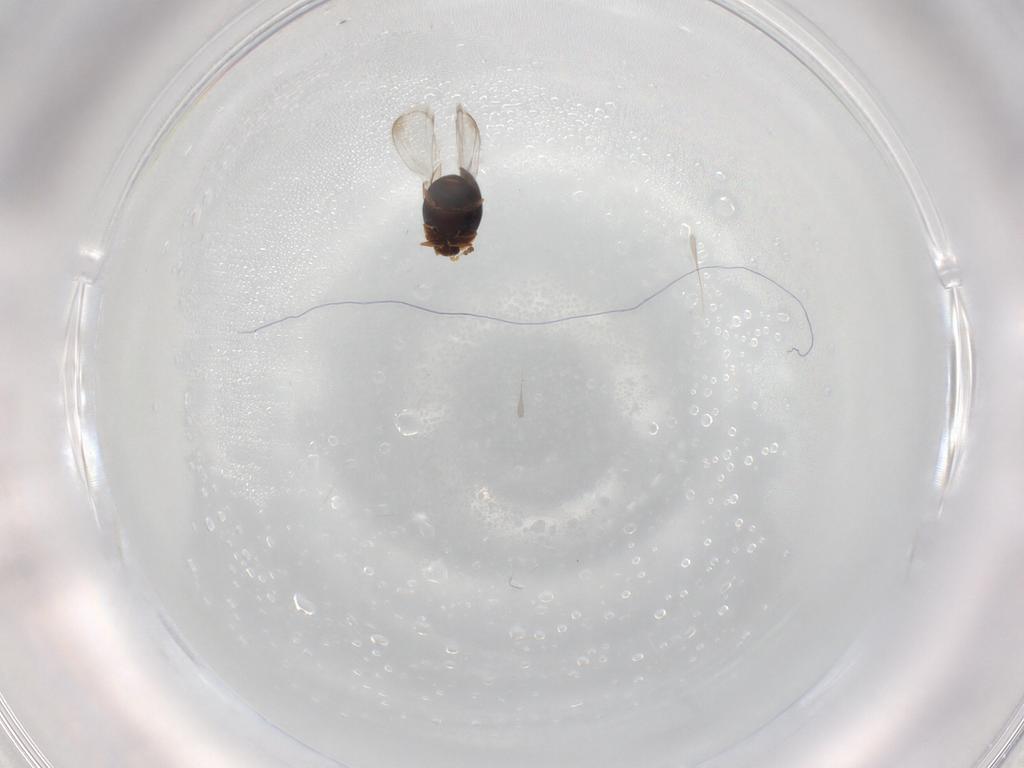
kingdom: Animalia
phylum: Arthropoda
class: Insecta
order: Coleoptera
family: Corylophidae
